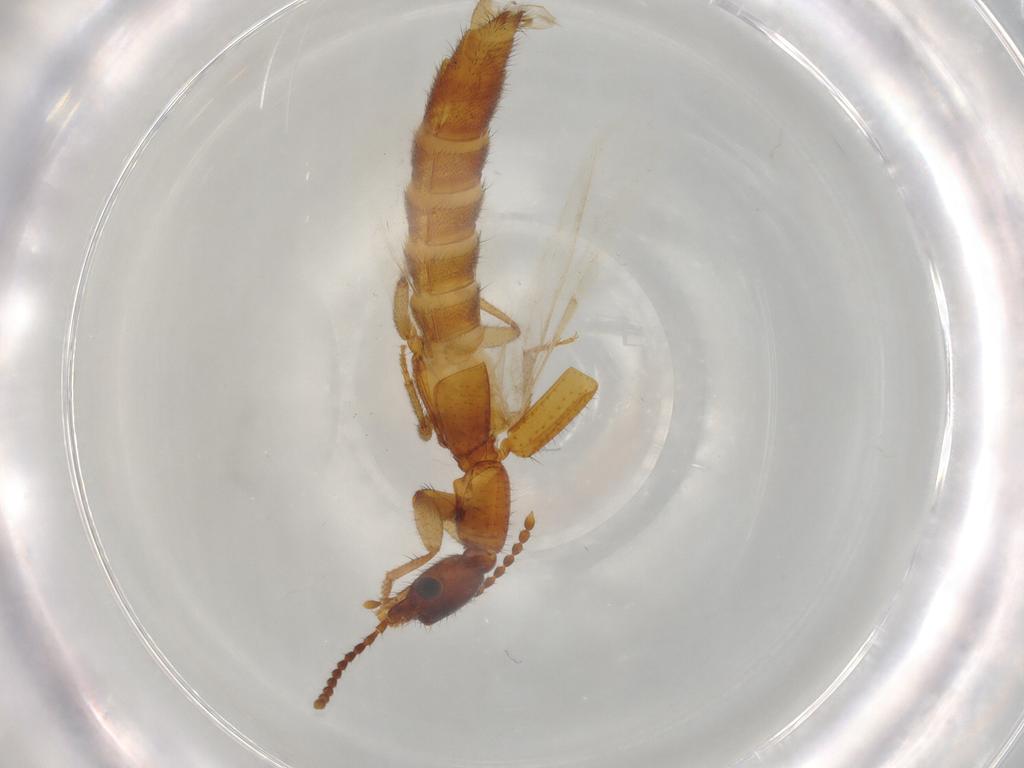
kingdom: Animalia
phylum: Arthropoda
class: Insecta
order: Coleoptera
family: Staphylinidae
